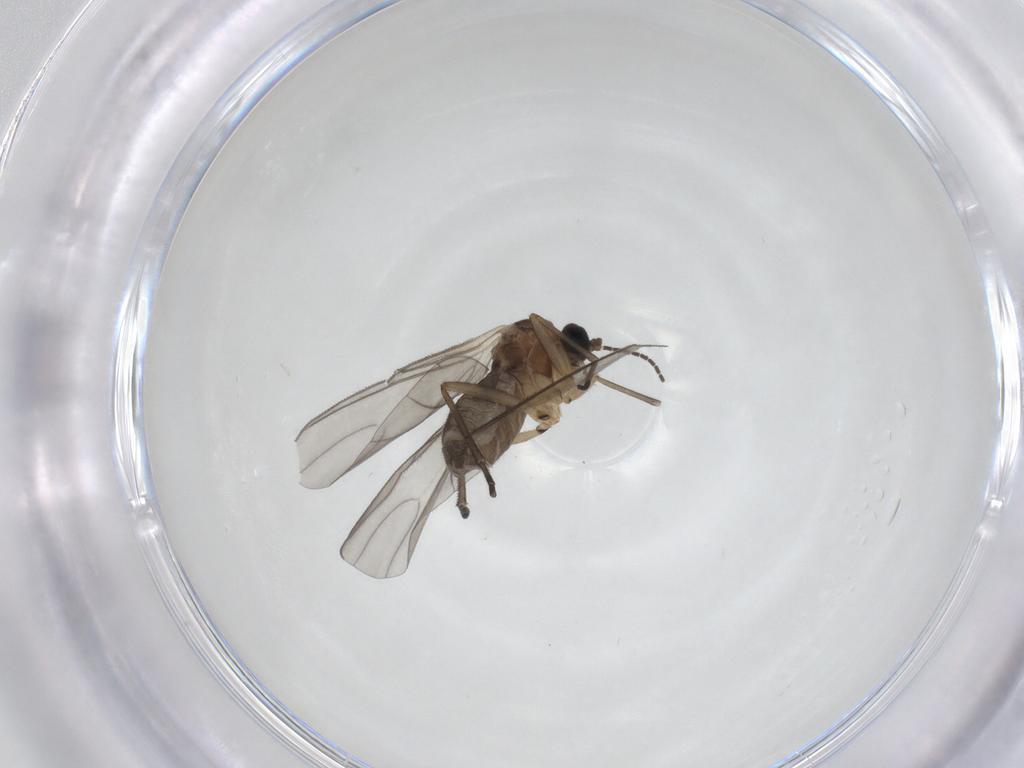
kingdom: Animalia
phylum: Arthropoda
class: Insecta
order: Diptera
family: Sciaridae
